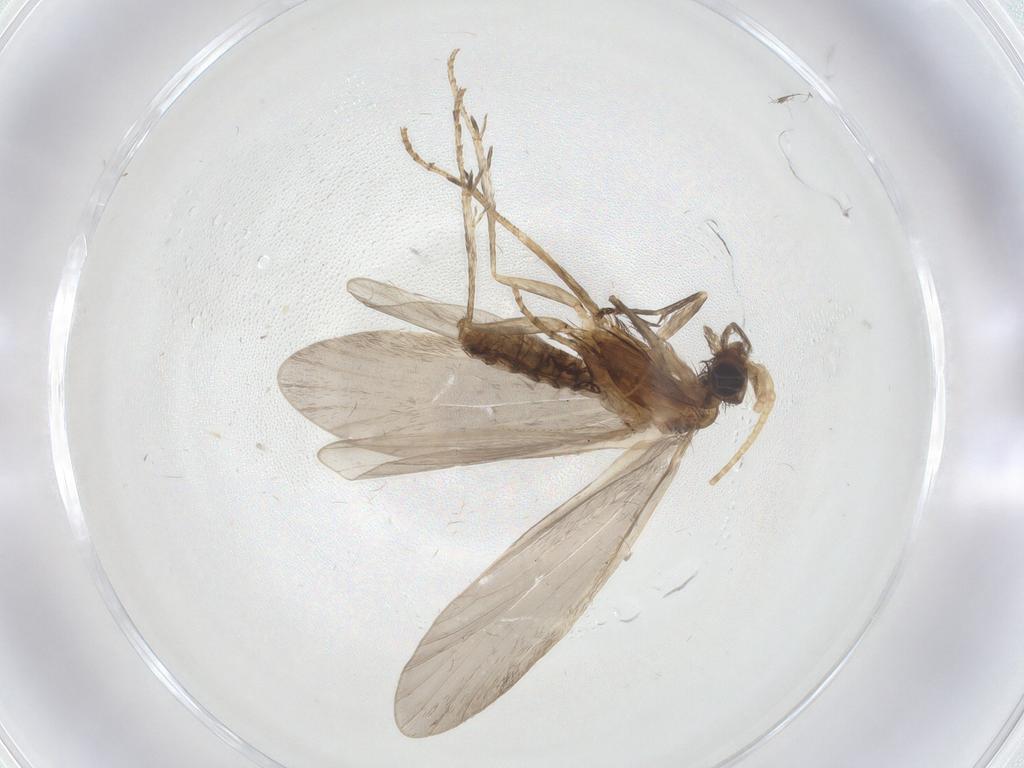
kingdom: Animalia
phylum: Arthropoda
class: Insecta
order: Trichoptera
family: Helicopsychidae
